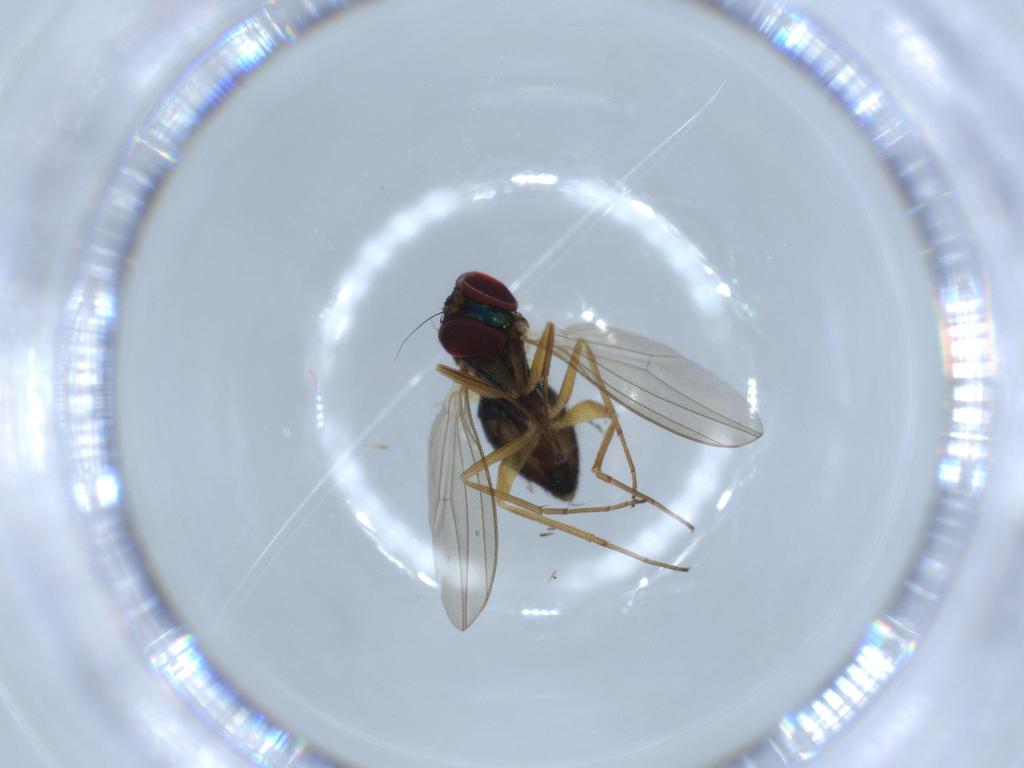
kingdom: Animalia
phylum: Arthropoda
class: Insecta
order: Diptera
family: Dolichopodidae
